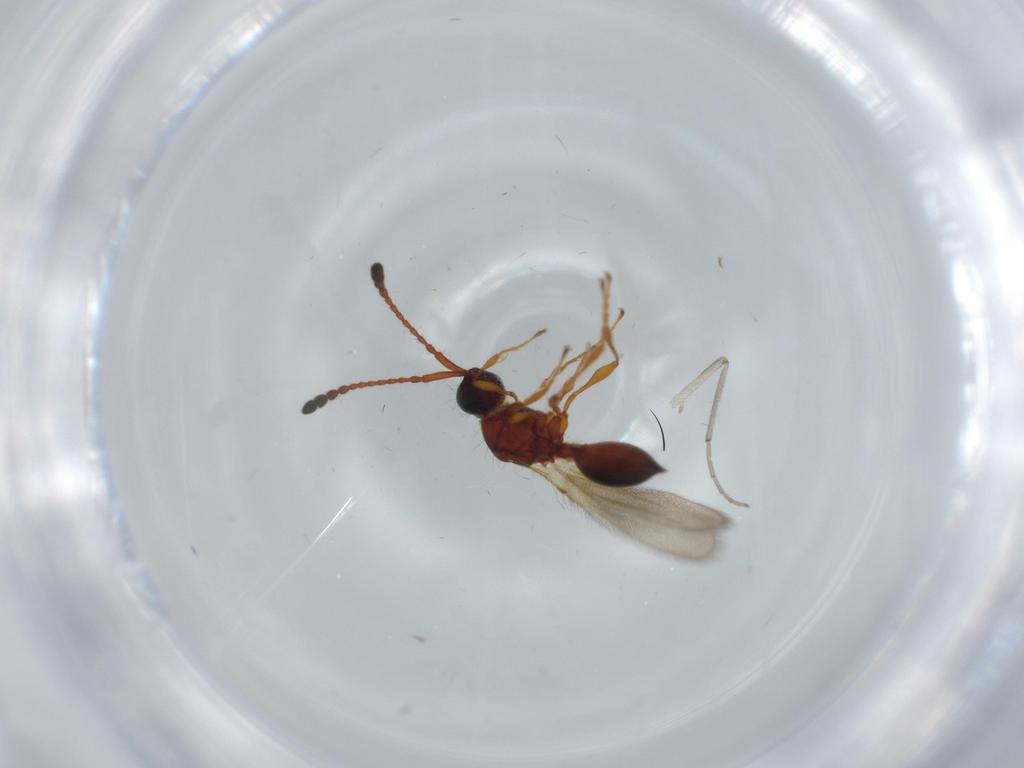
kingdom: Animalia
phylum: Arthropoda
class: Insecta
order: Hymenoptera
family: Diapriidae
